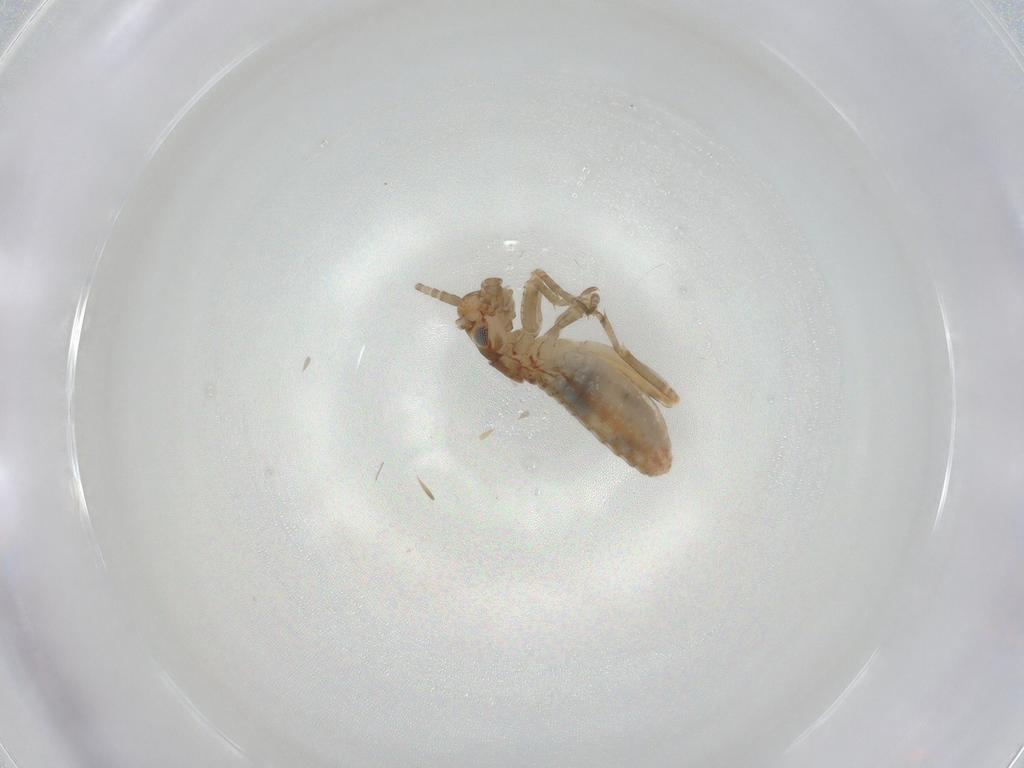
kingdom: Animalia
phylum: Arthropoda
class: Insecta
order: Orthoptera
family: Mogoplistidae
